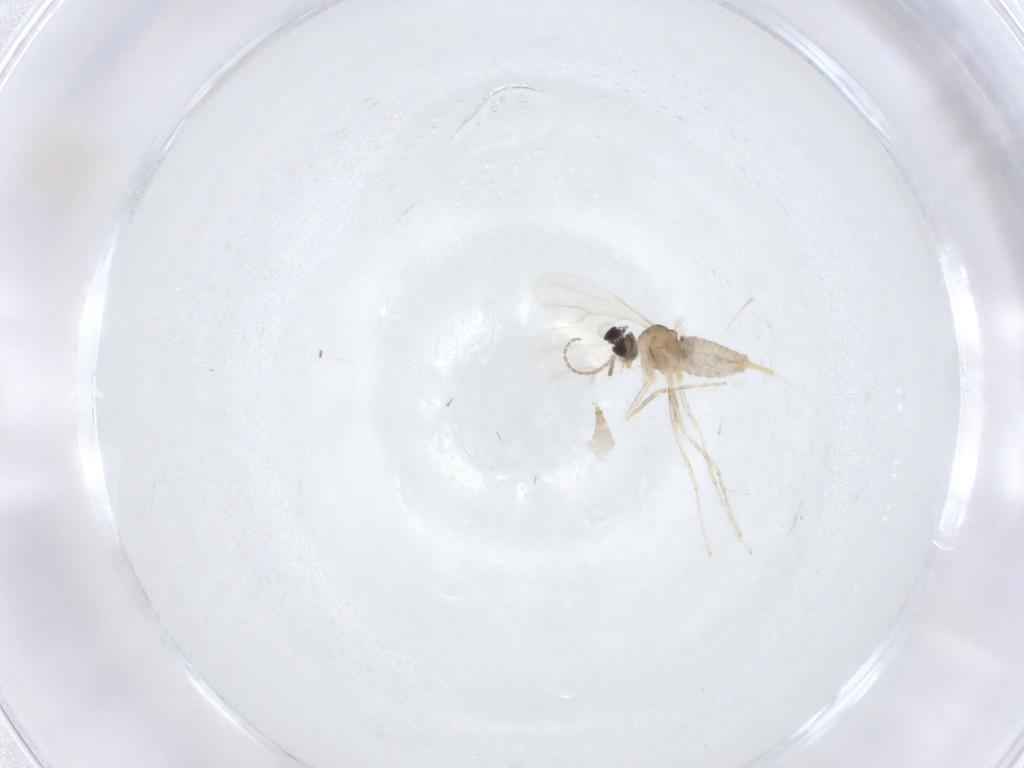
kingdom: Animalia
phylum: Arthropoda
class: Insecta
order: Diptera
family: Cecidomyiidae
